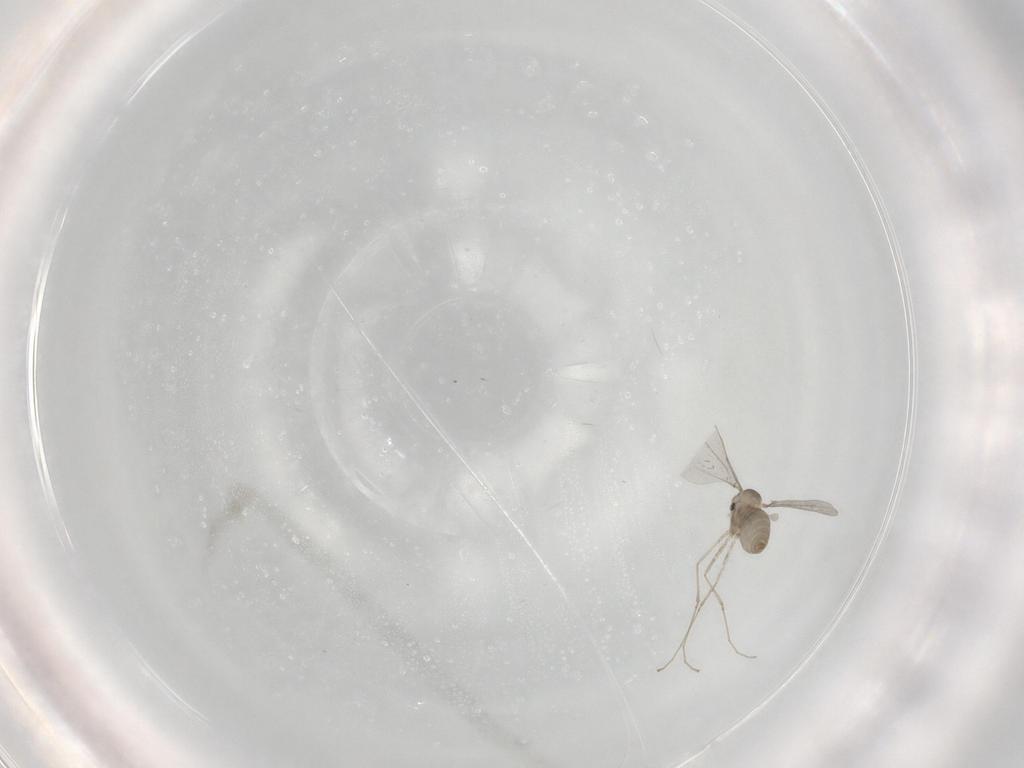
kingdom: Animalia
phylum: Arthropoda
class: Insecta
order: Diptera
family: Cecidomyiidae
